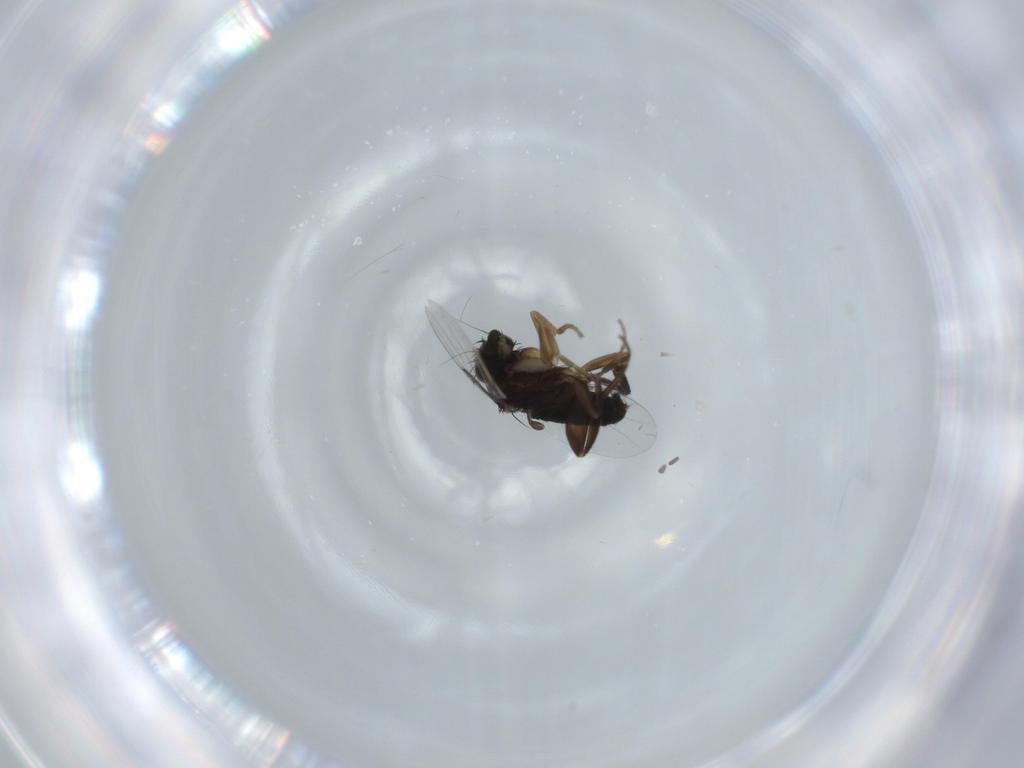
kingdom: Animalia
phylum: Arthropoda
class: Insecta
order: Diptera
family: Phoridae
